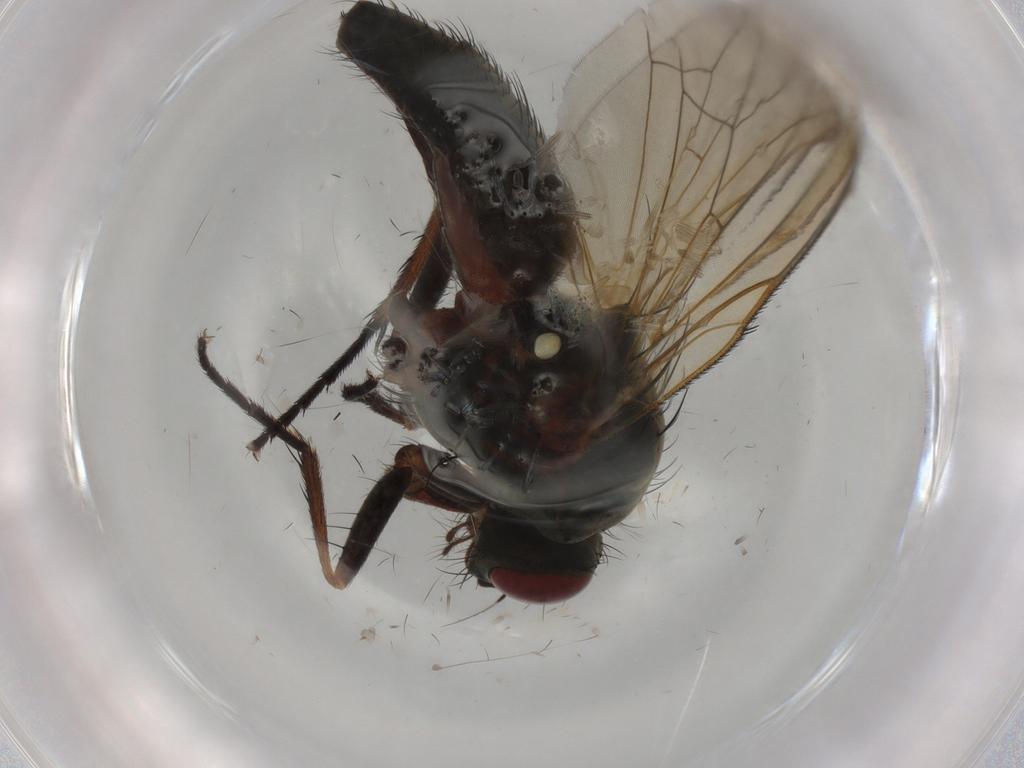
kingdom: Animalia
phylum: Arthropoda
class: Insecta
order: Diptera
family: Anthomyiidae
